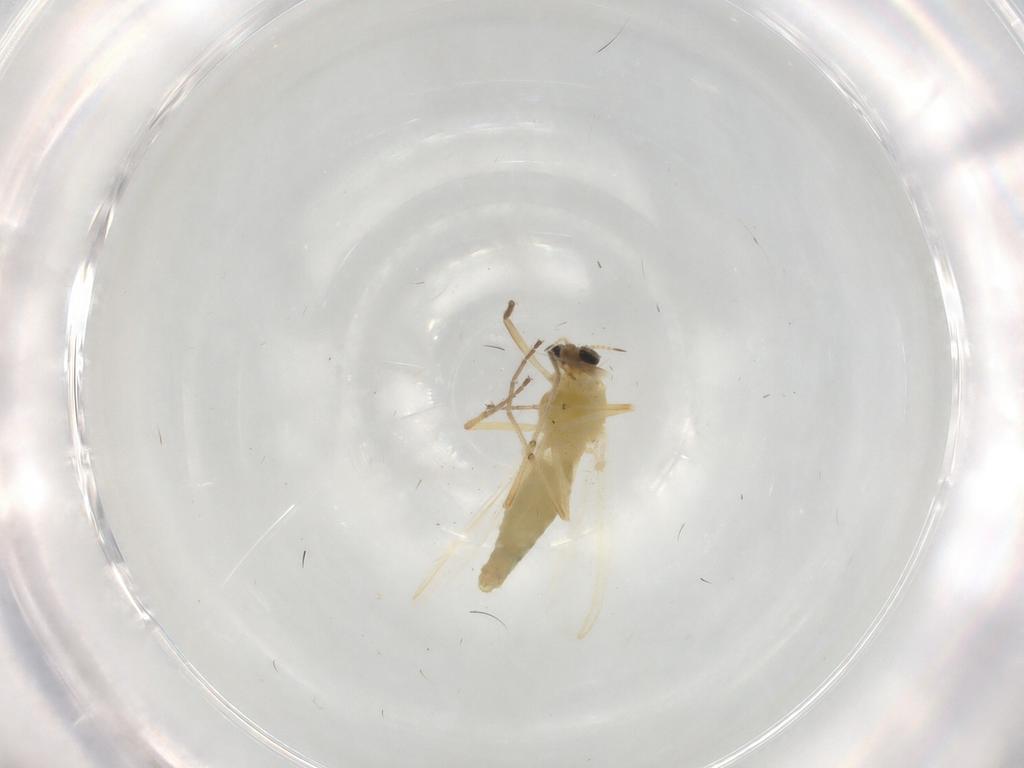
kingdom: Animalia
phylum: Arthropoda
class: Insecta
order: Diptera
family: Chironomidae
